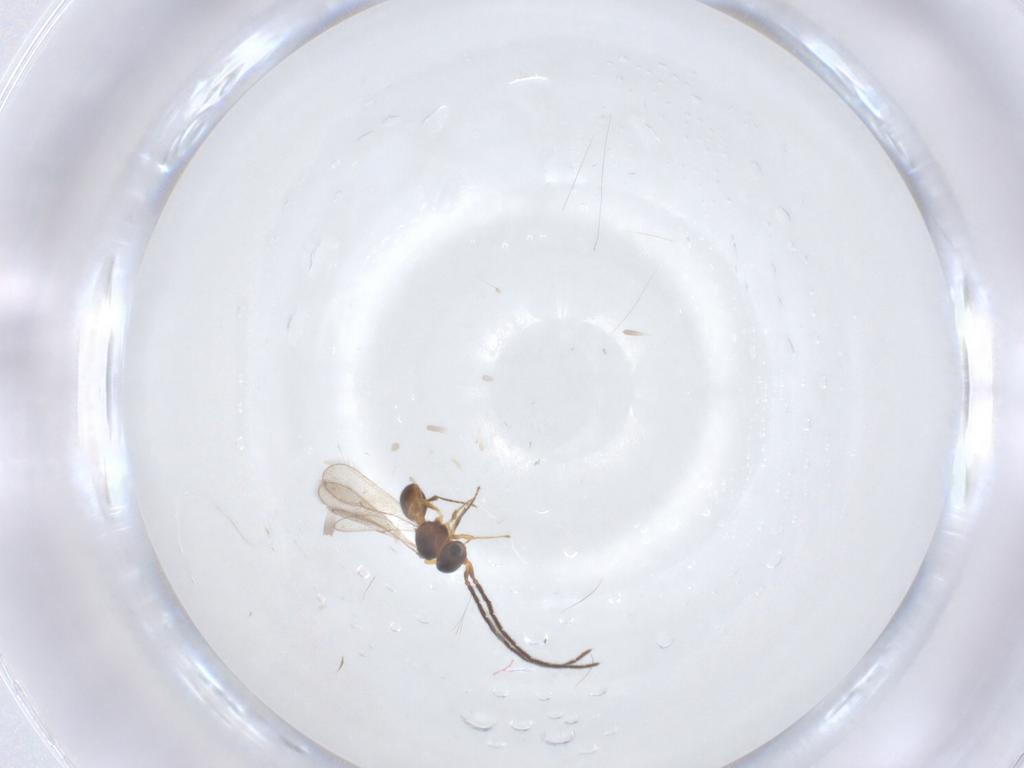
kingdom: Animalia
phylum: Arthropoda
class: Insecta
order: Hymenoptera
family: Scelionidae
